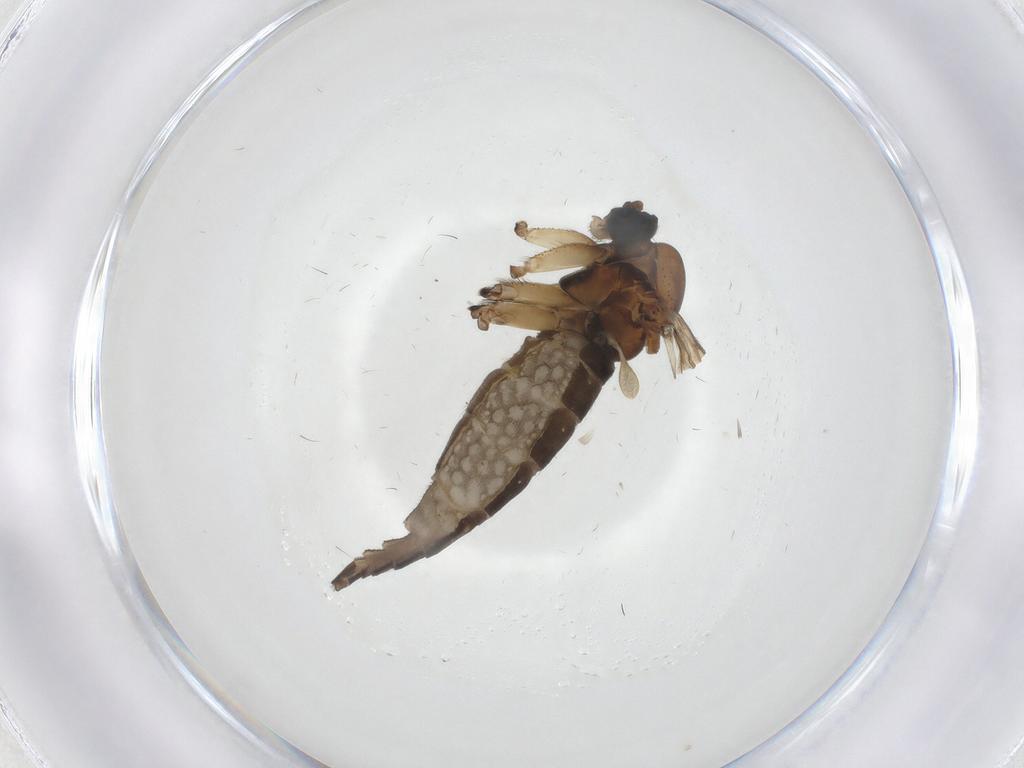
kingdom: Animalia
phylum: Arthropoda
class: Insecta
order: Diptera
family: Sciaridae
